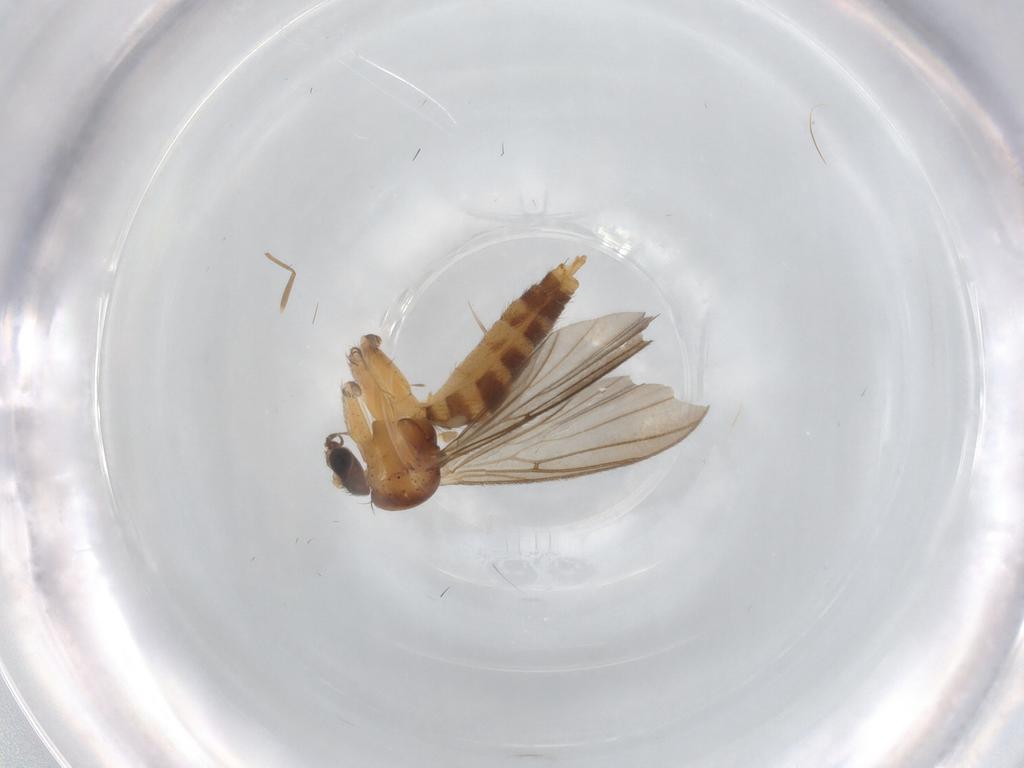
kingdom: Animalia
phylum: Arthropoda
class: Insecta
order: Diptera
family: Mycetophilidae
